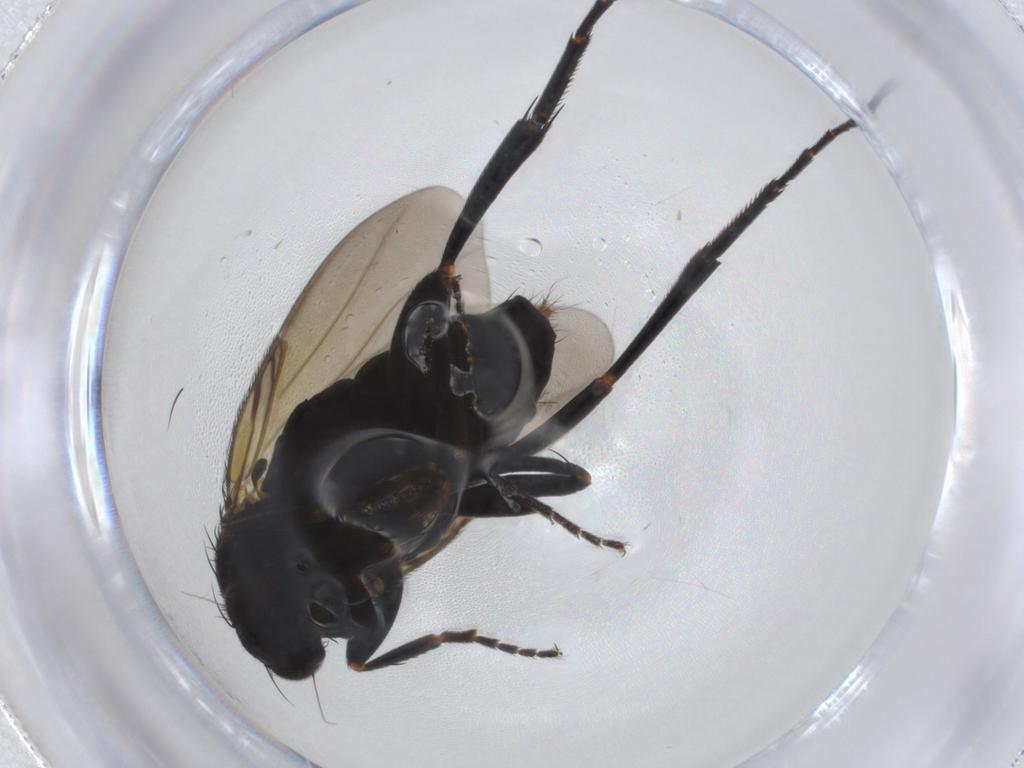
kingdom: Animalia
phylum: Arthropoda
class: Insecta
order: Diptera
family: Phoridae
